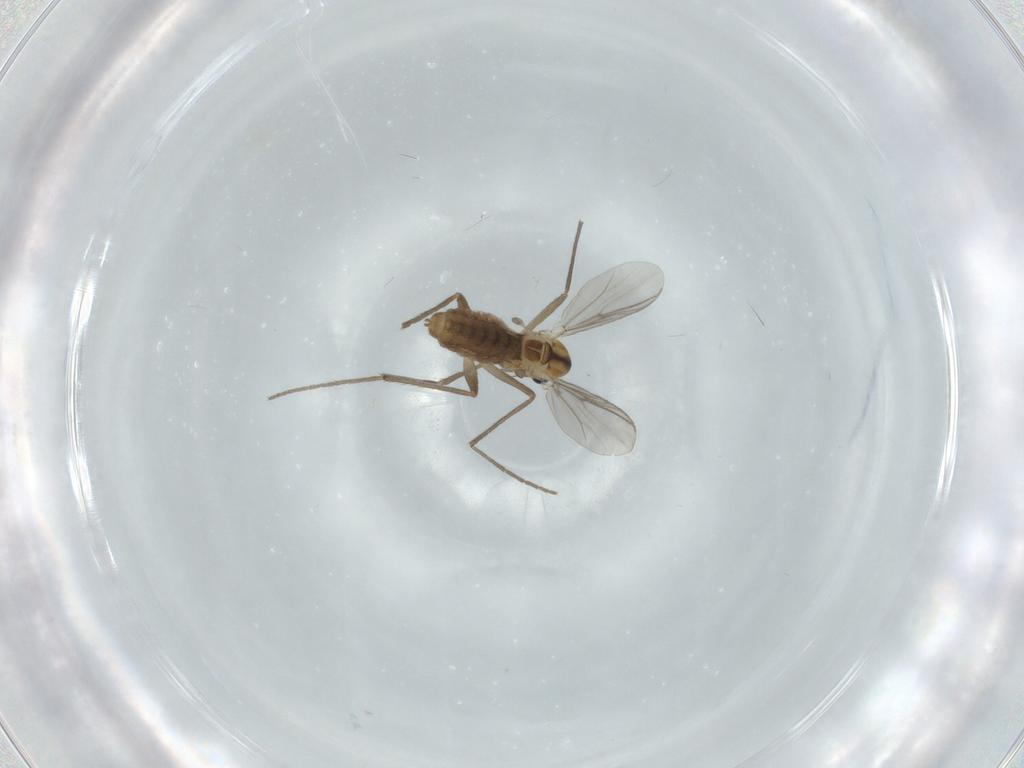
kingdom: Animalia
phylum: Arthropoda
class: Insecta
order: Diptera
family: Chironomidae
